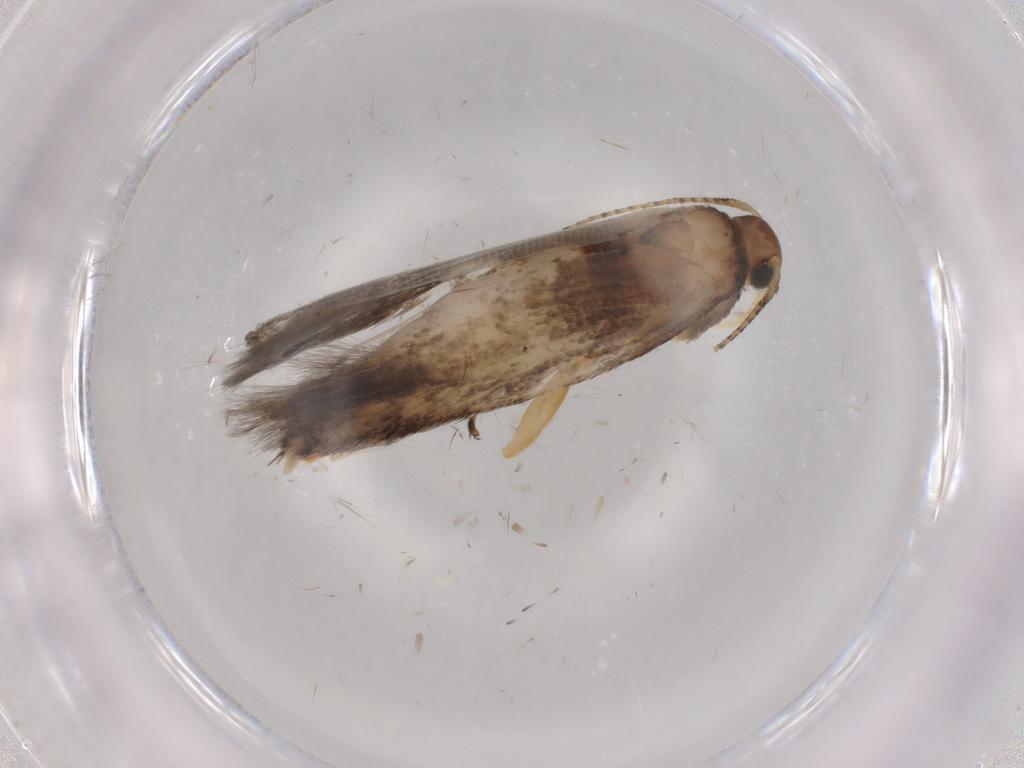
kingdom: Animalia
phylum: Arthropoda
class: Insecta
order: Lepidoptera
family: Gelechiidae
